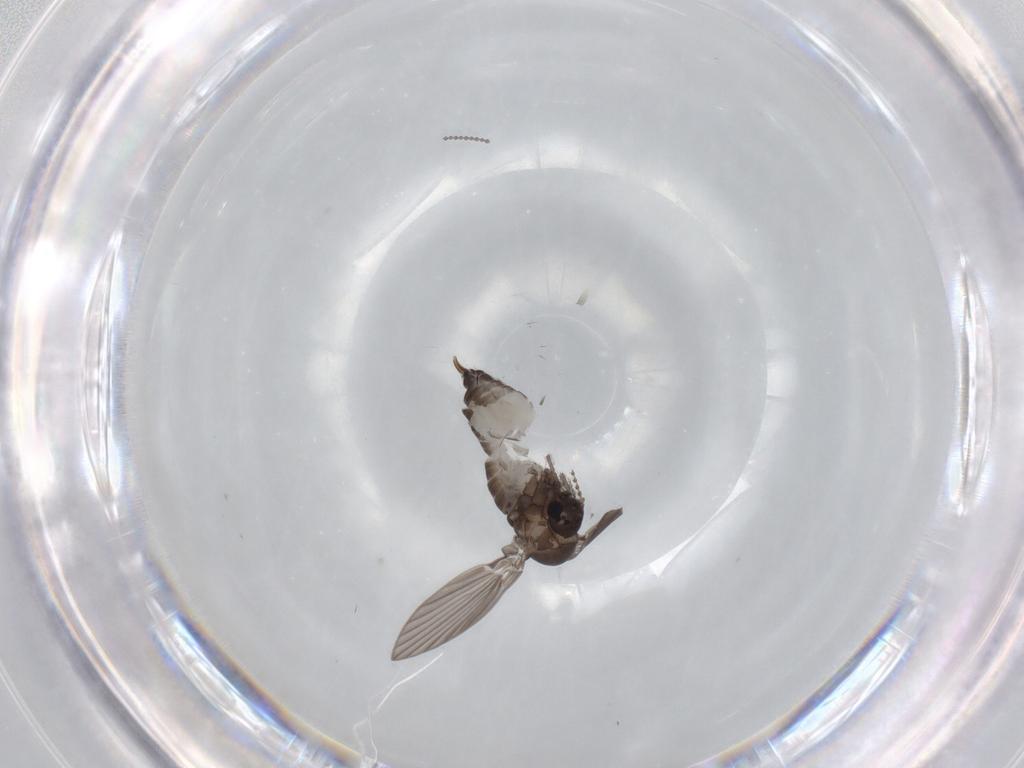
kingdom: Animalia
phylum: Arthropoda
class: Insecta
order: Diptera
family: Psychodidae
